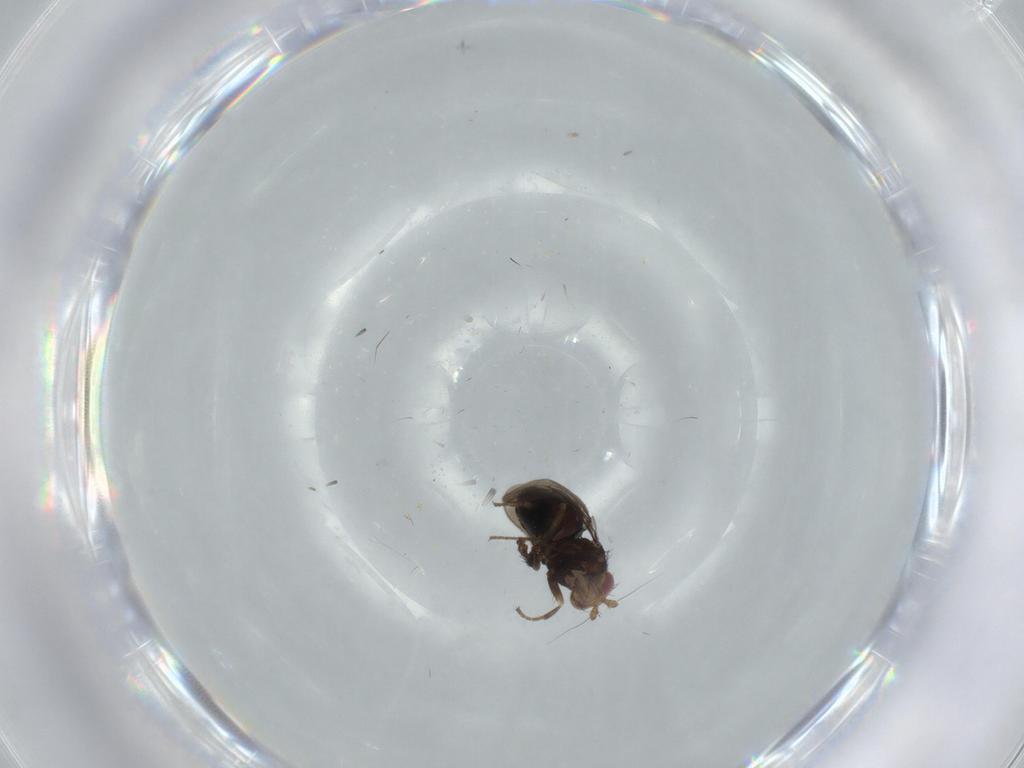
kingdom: Animalia
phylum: Arthropoda
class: Insecta
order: Diptera
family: Sphaeroceridae
